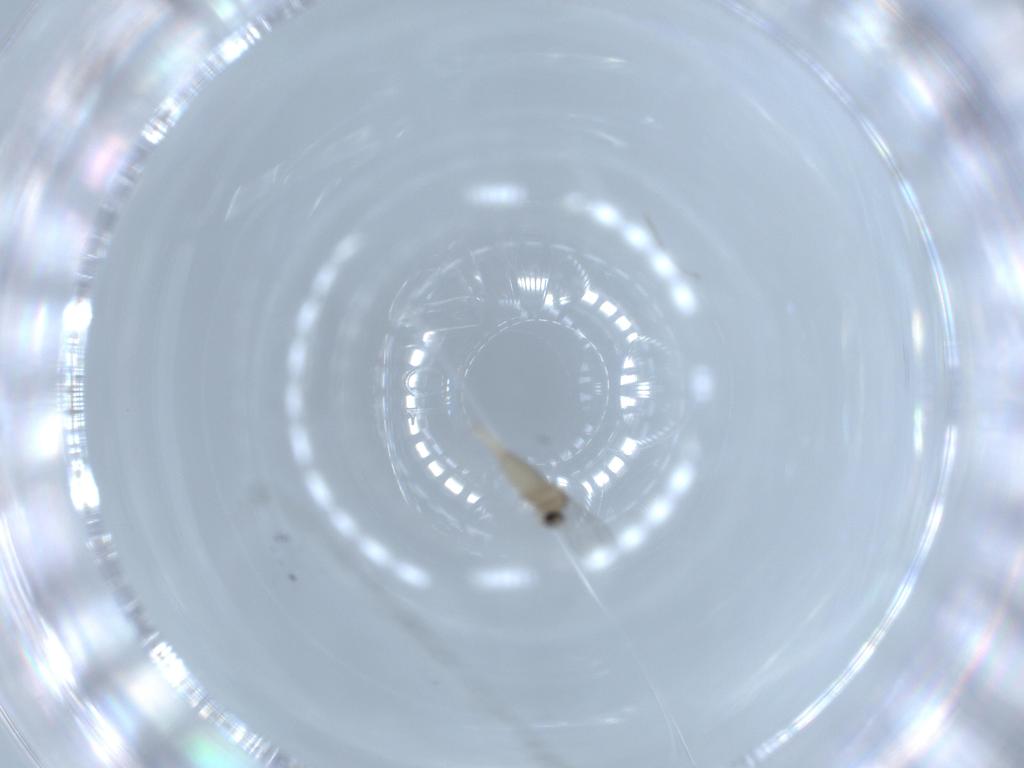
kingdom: Animalia
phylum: Arthropoda
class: Insecta
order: Diptera
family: Cecidomyiidae
